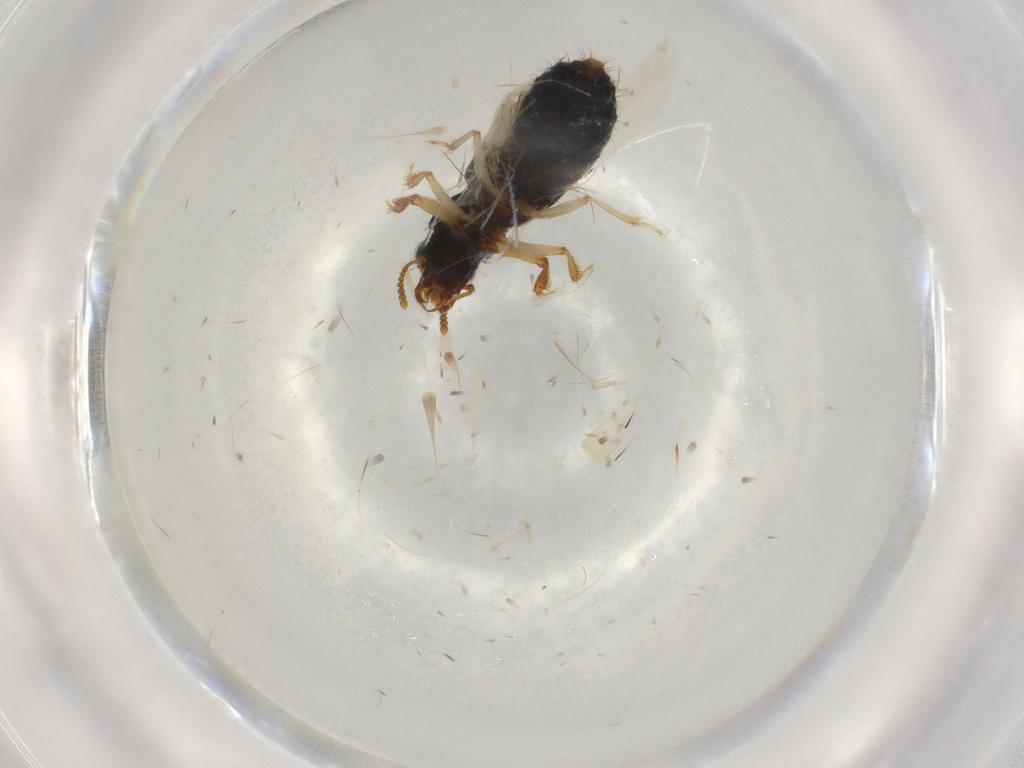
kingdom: Animalia
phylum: Arthropoda
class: Insecta
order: Coleoptera
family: Staphylinidae
